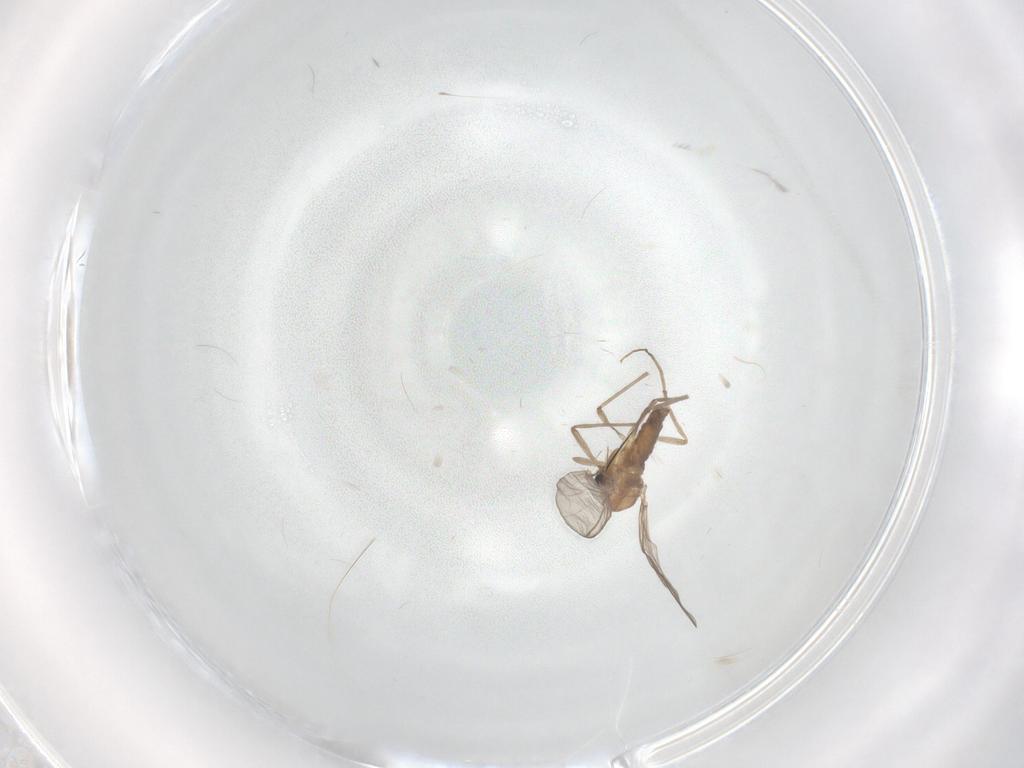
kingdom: Animalia
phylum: Arthropoda
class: Insecta
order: Diptera
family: Chironomidae
